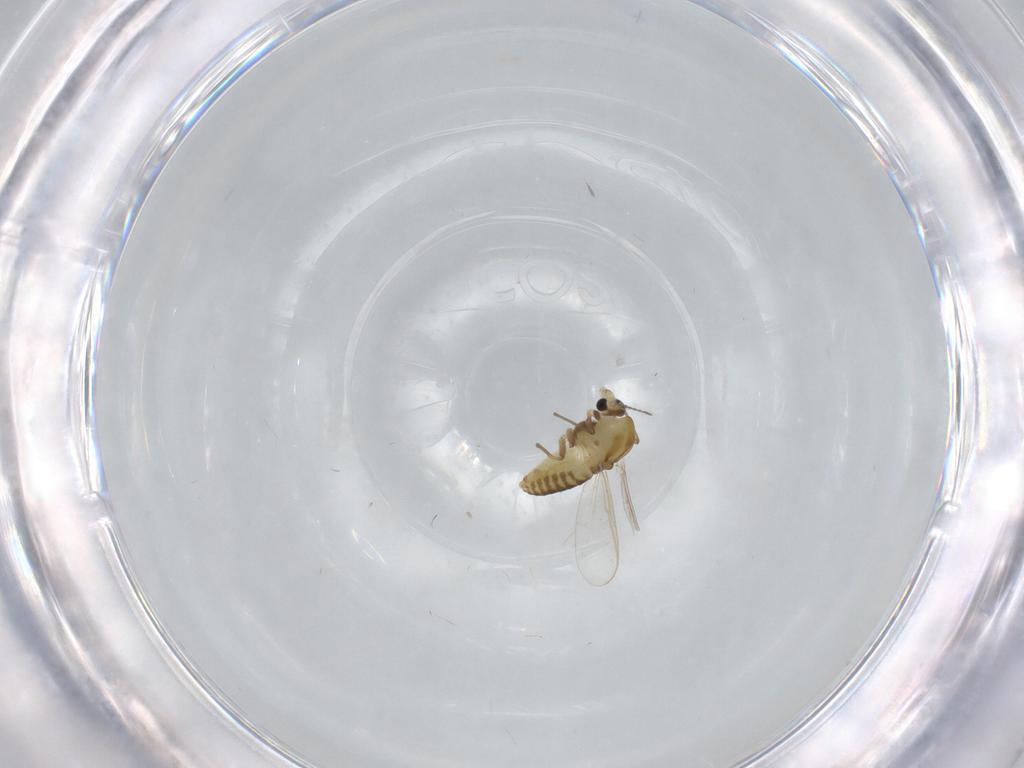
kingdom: Animalia
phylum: Arthropoda
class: Insecta
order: Diptera
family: Chironomidae
